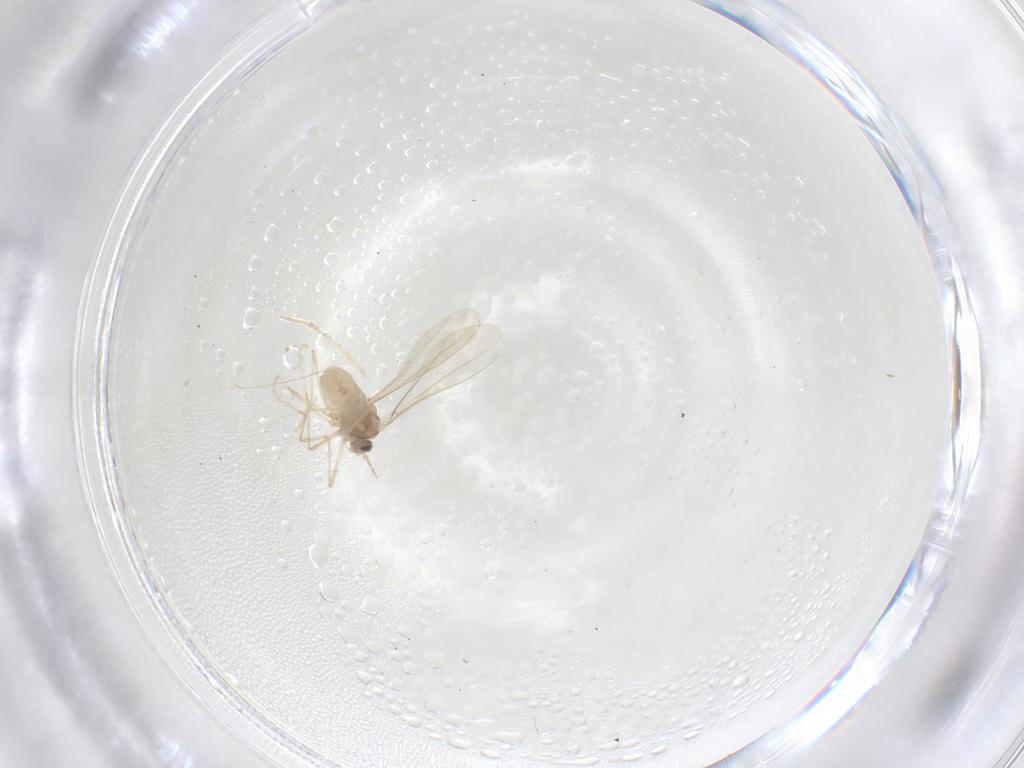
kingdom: Animalia
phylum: Arthropoda
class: Insecta
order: Diptera
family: Cecidomyiidae
